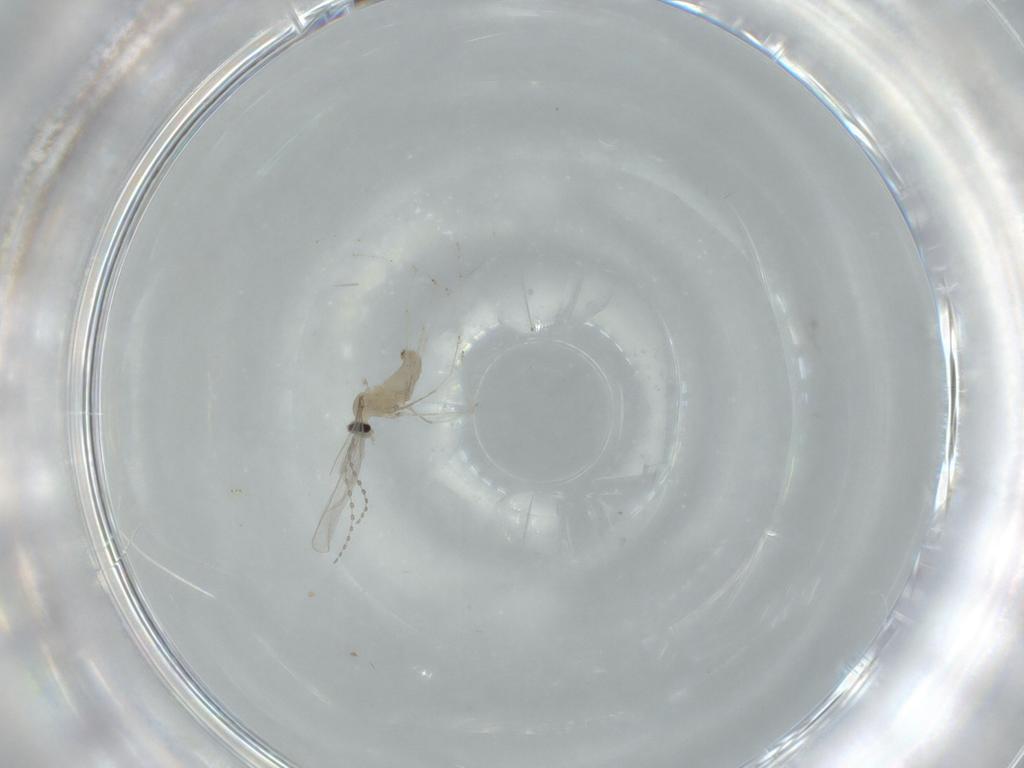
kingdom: Animalia
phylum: Arthropoda
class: Insecta
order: Diptera
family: Cecidomyiidae
